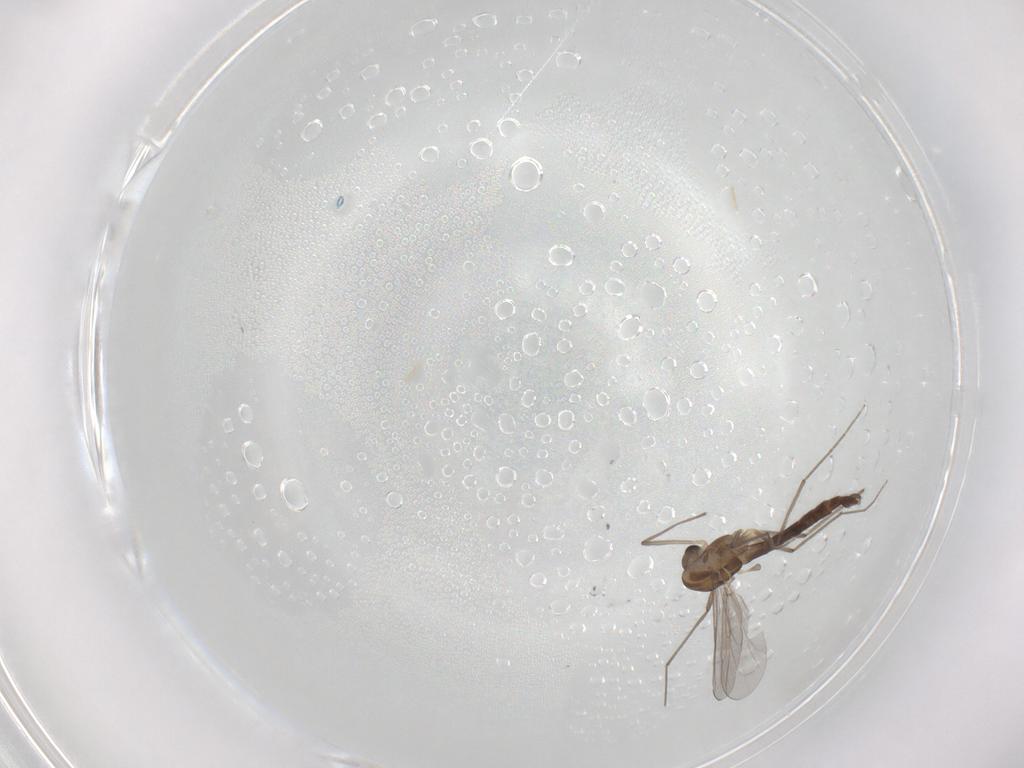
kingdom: Animalia
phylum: Arthropoda
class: Insecta
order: Diptera
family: Chironomidae
